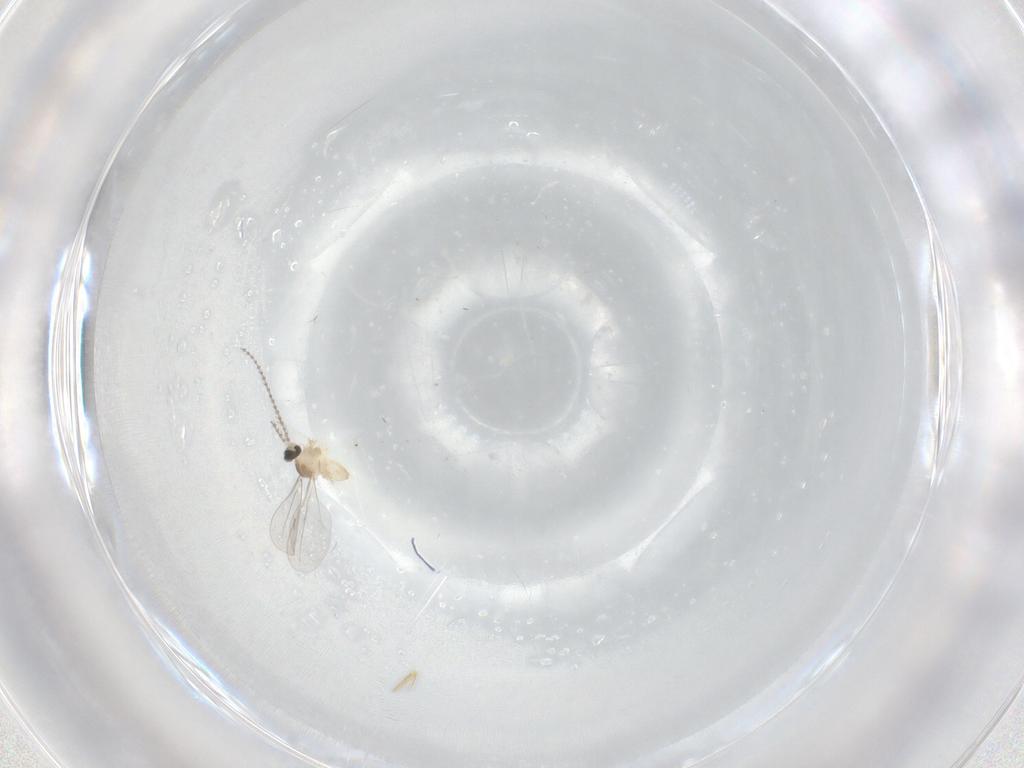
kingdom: Animalia
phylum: Arthropoda
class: Insecta
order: Diptera
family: Cecidomyiidae
